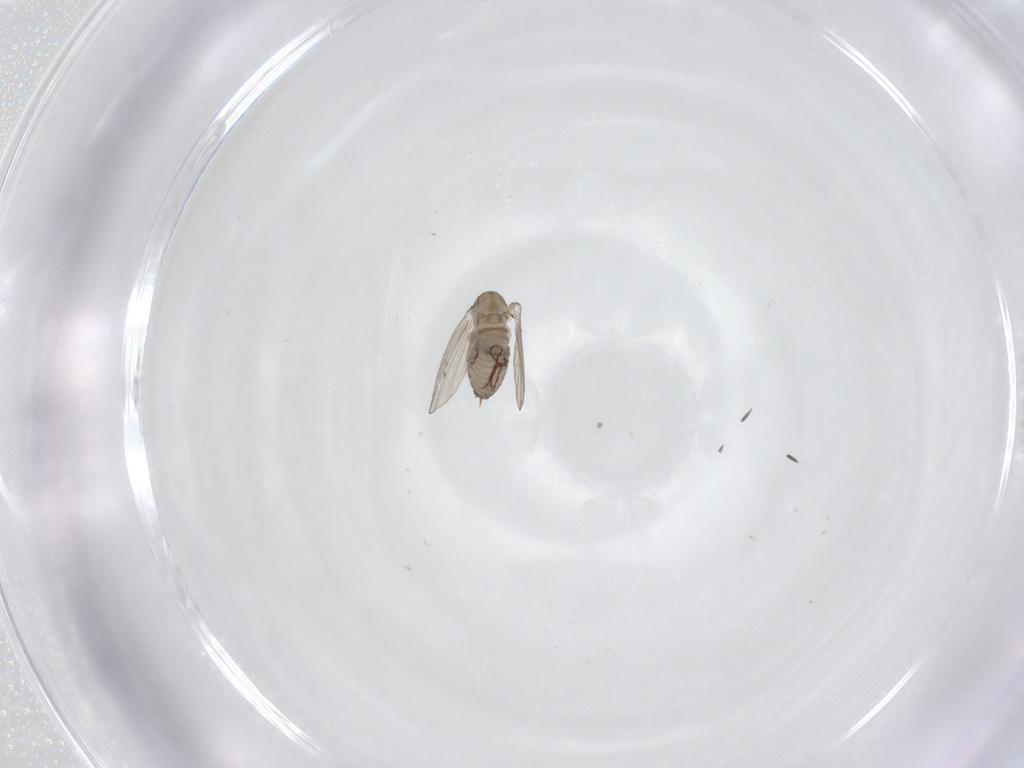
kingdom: Animalia
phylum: Arthropoda
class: Insecta
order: Diptera
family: Psychodidae
